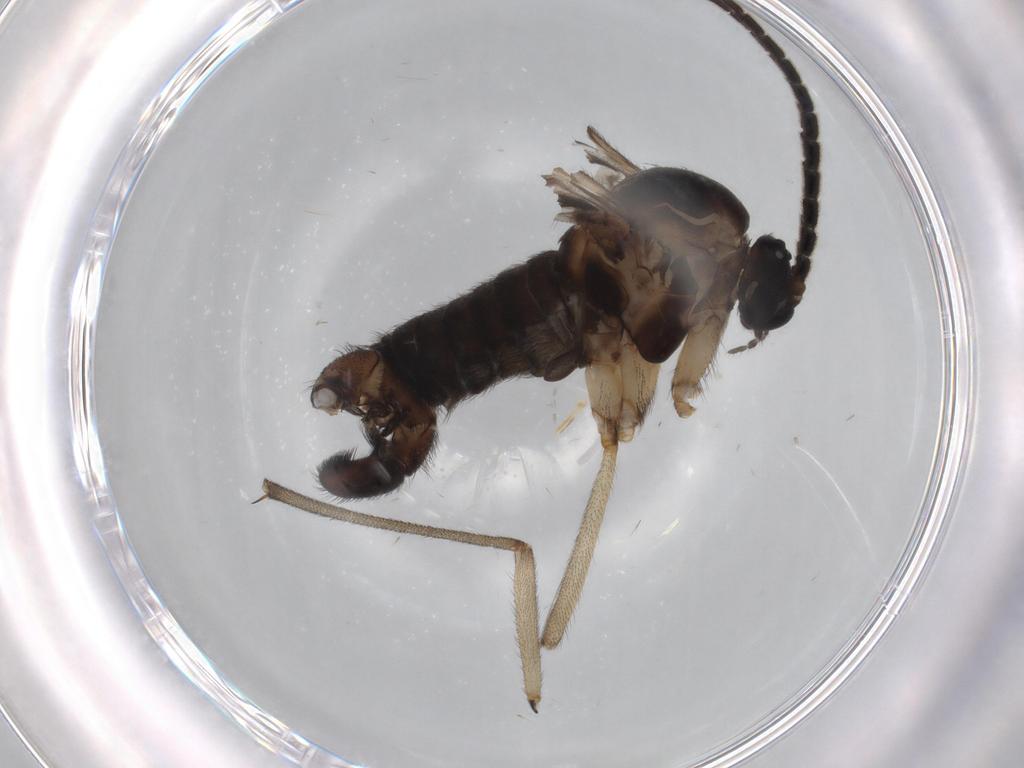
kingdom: Animalia
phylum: Arthropoda
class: Insecta
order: Diptera
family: Sciaridae
